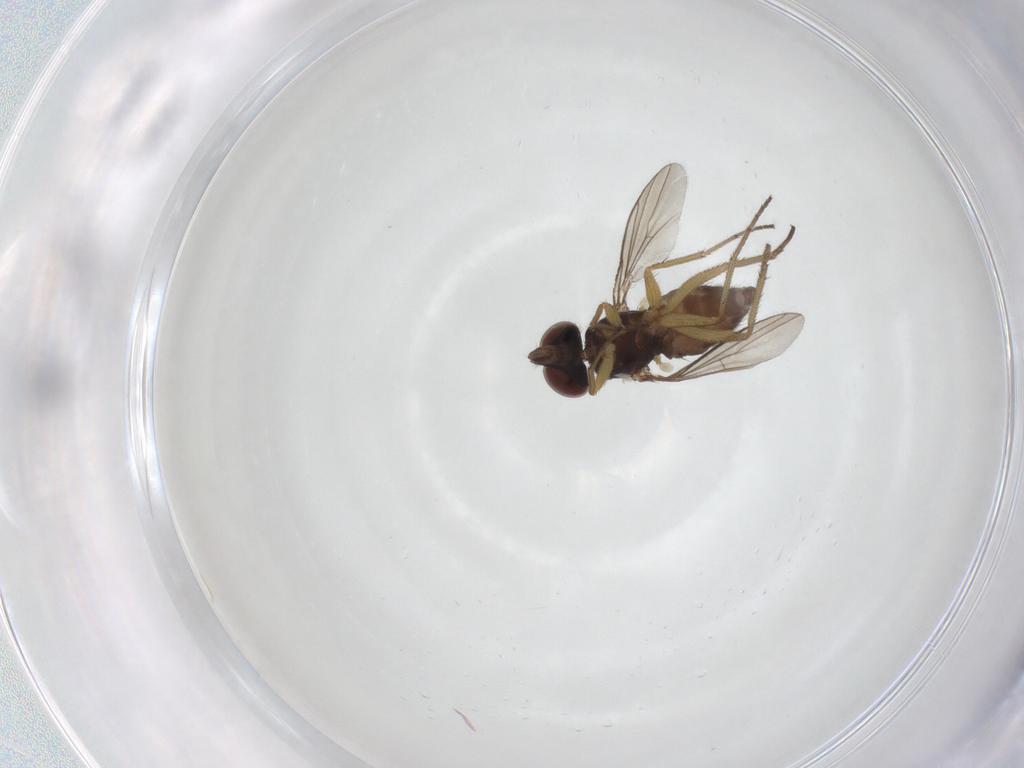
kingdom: Animalia
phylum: Arthropoda
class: Insecta
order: Diptera
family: Dolichopodidae
